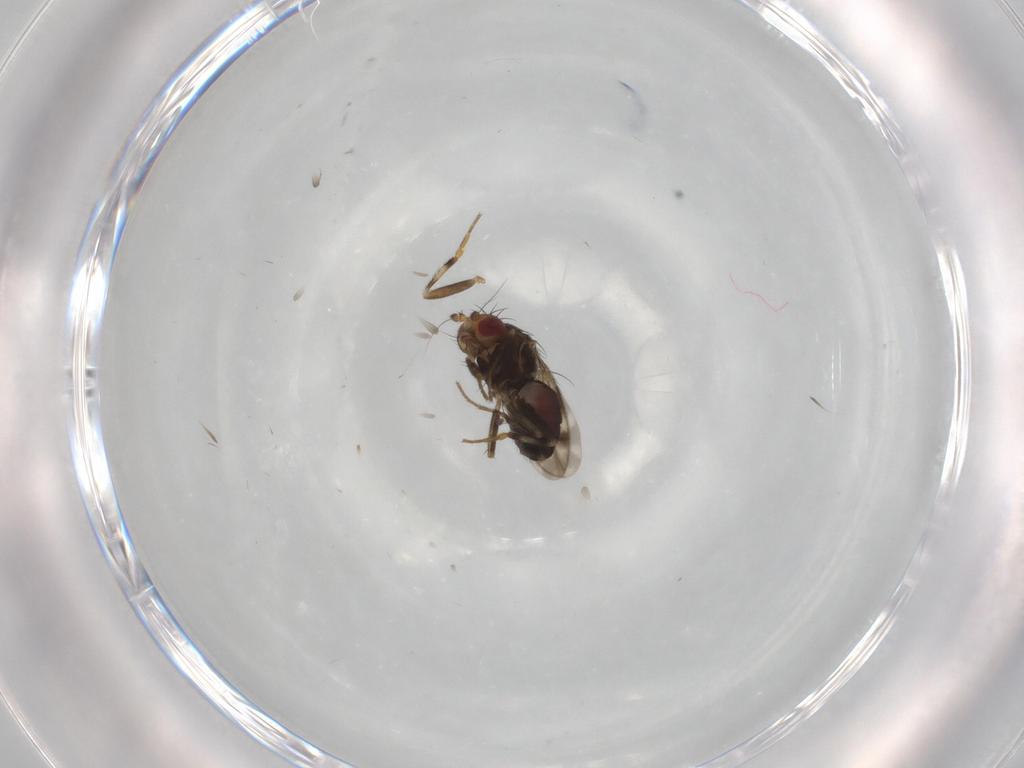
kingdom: Animalia
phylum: Arthropoda
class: Insecta
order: Diptera
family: Sphaeroceridae
